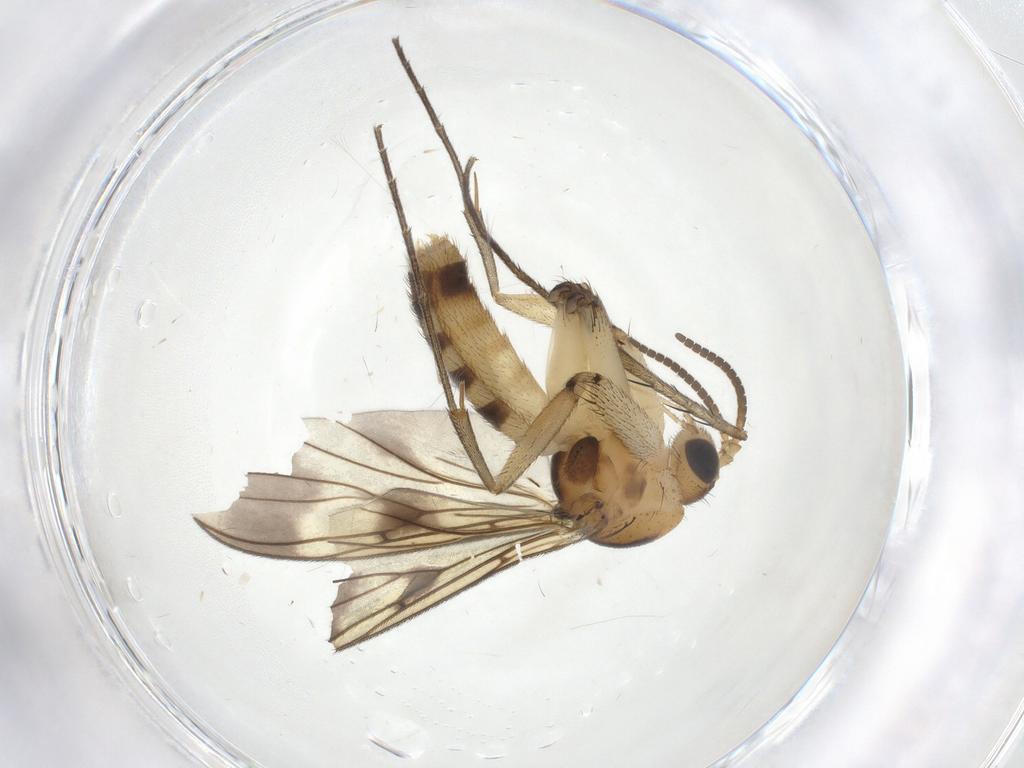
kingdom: Animalia
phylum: Arthropoda
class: Insecta
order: Diptera
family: Mycetophilidae
